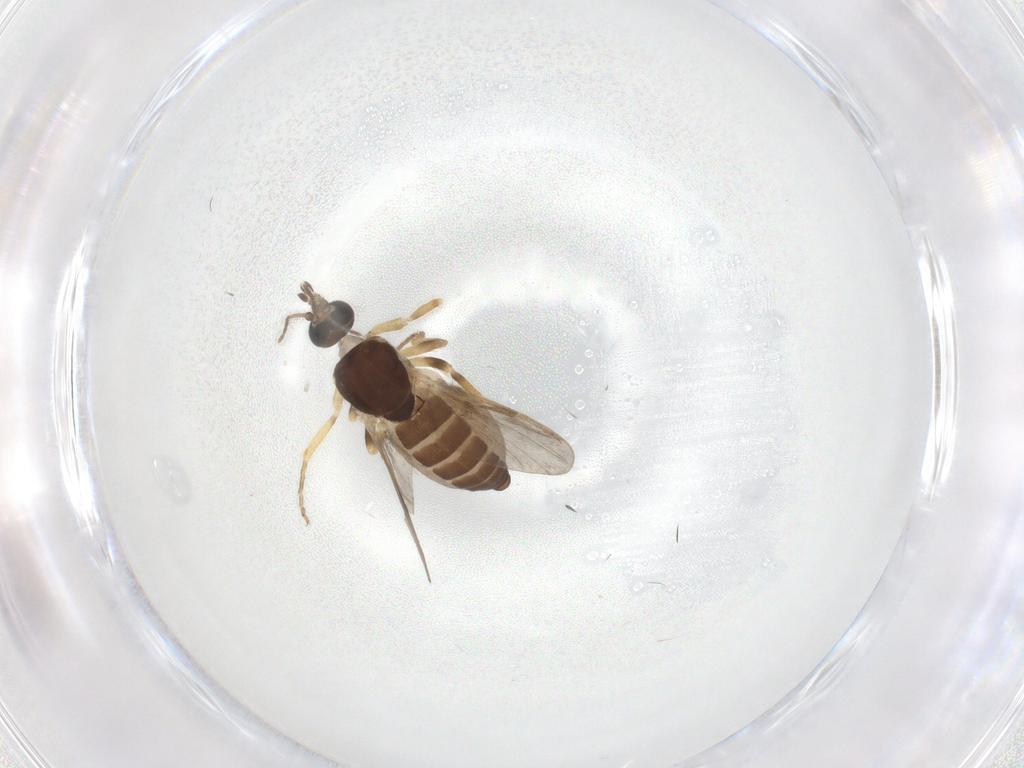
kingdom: Animalia
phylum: Arthropoda
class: Insecta
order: Diptera
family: Ceratopogonidae
